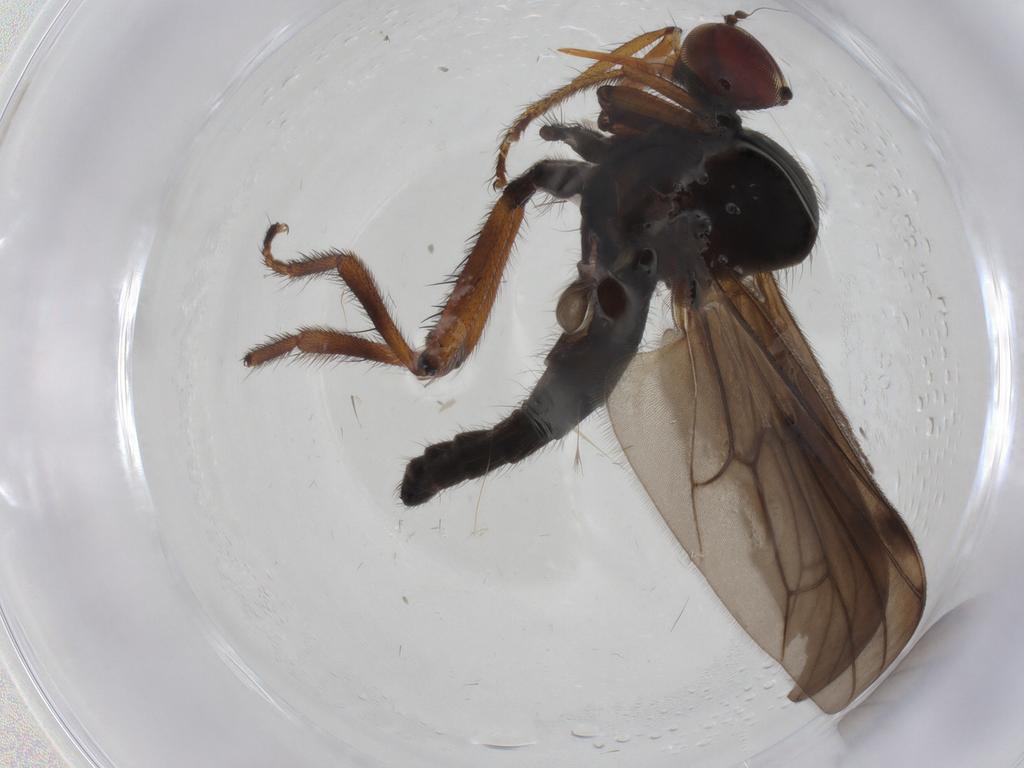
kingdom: Animalia
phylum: Arthropoda
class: Insecta
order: Diptera
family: Hybotidae
